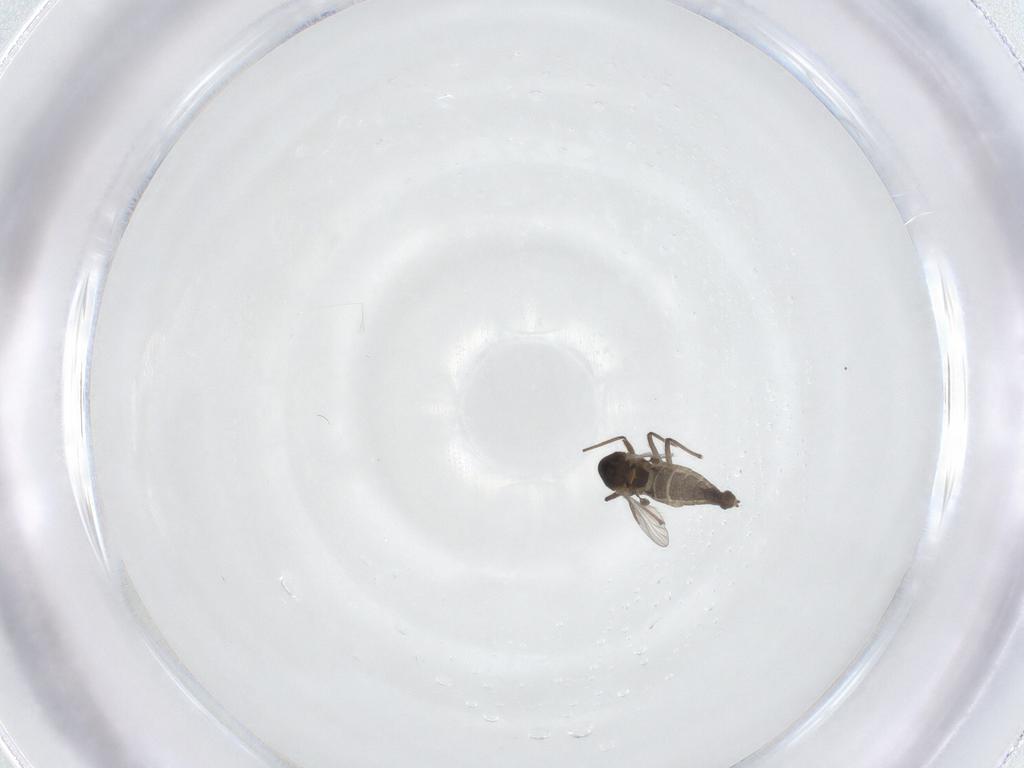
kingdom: Animalia
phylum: Arthropoda
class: Insecta
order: Diptera
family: Chironomidae
